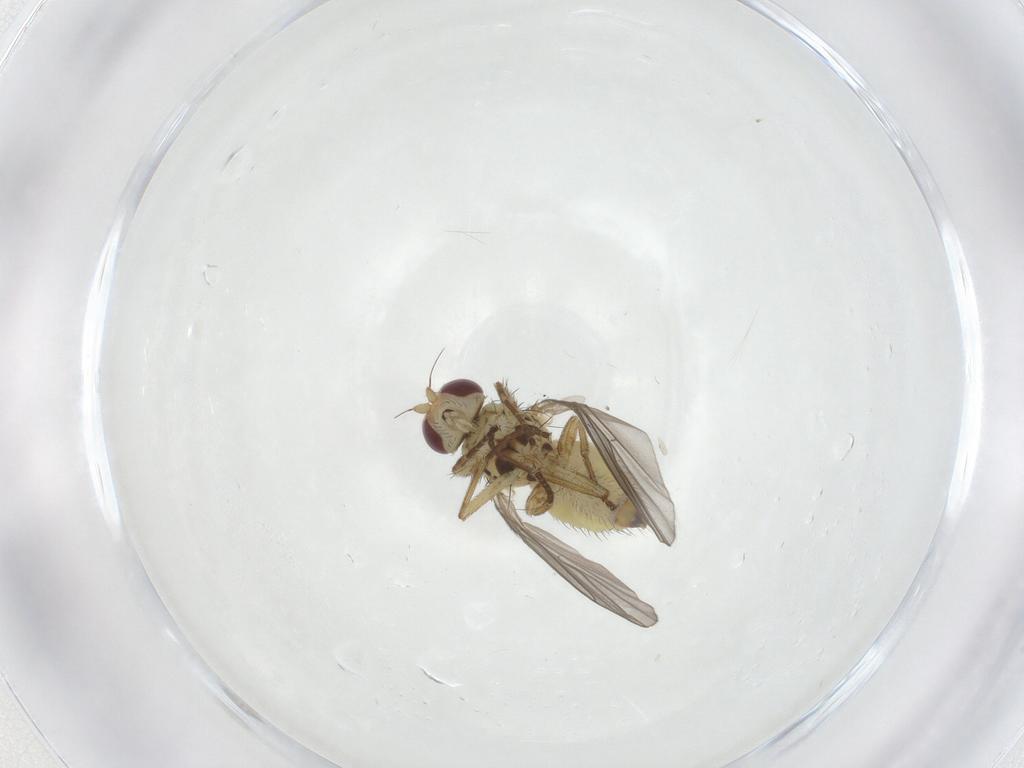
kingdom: Animalia
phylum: Arthropoda
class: Insecta
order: Diptera
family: Agromyzidae
